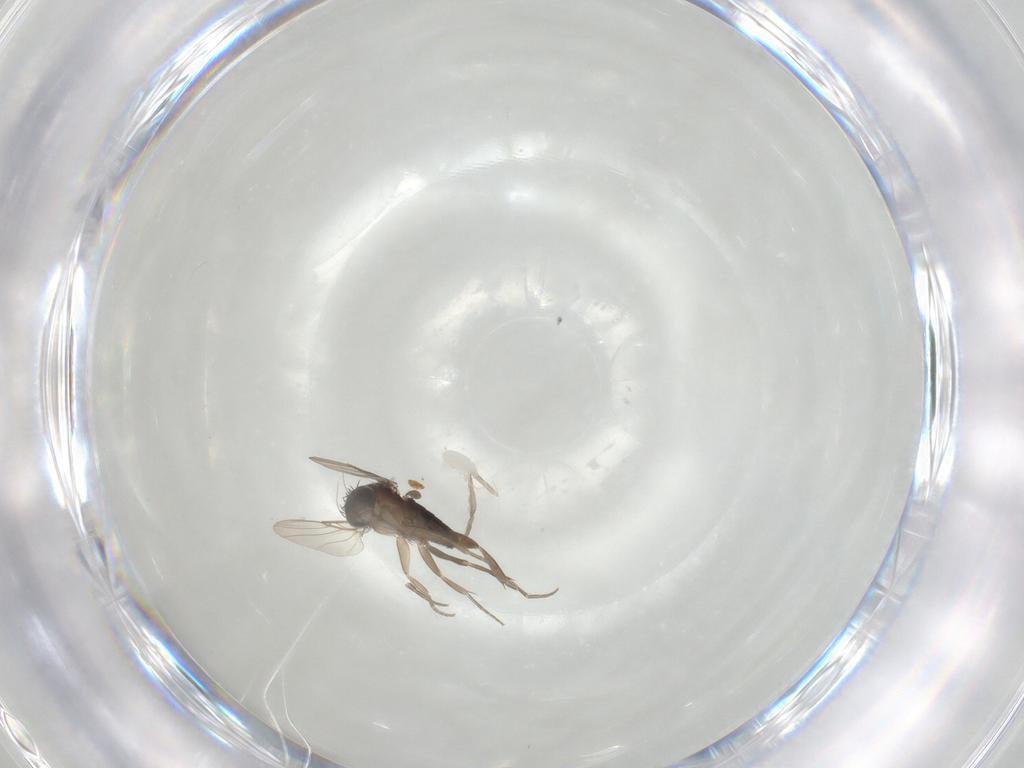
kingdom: Animalia
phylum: Arthropoda
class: Insecta
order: Diptera
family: Phoridae
